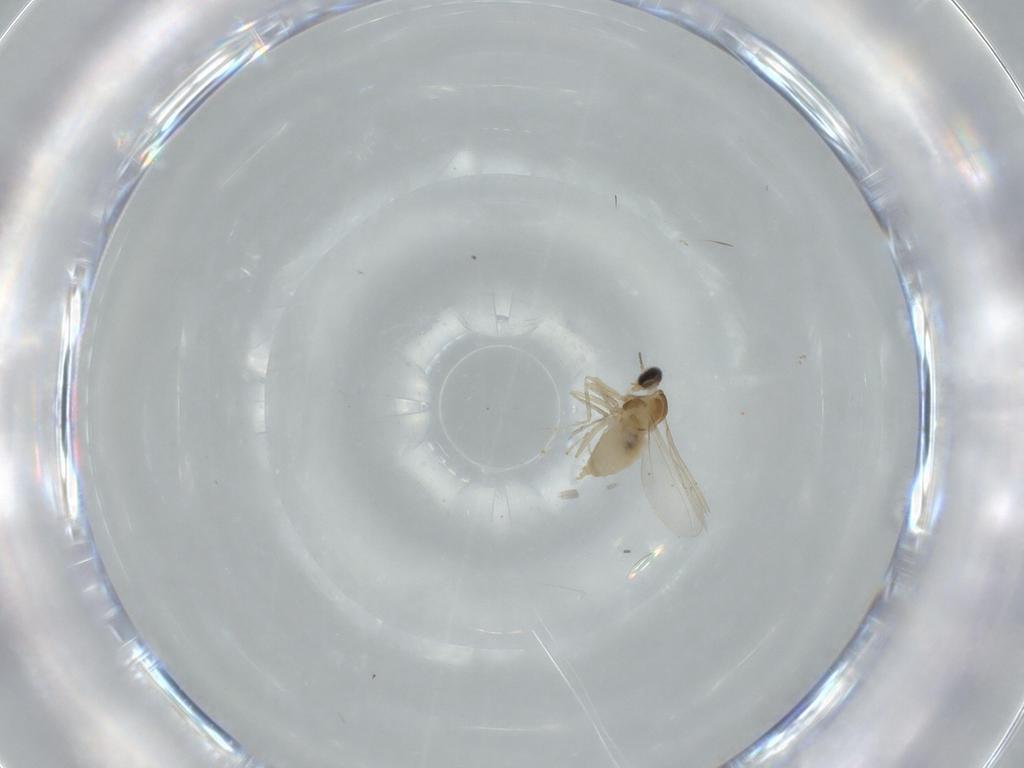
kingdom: Animalia
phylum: Arthropoda
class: Insecta
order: Diptera
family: Cecidomyiidae
